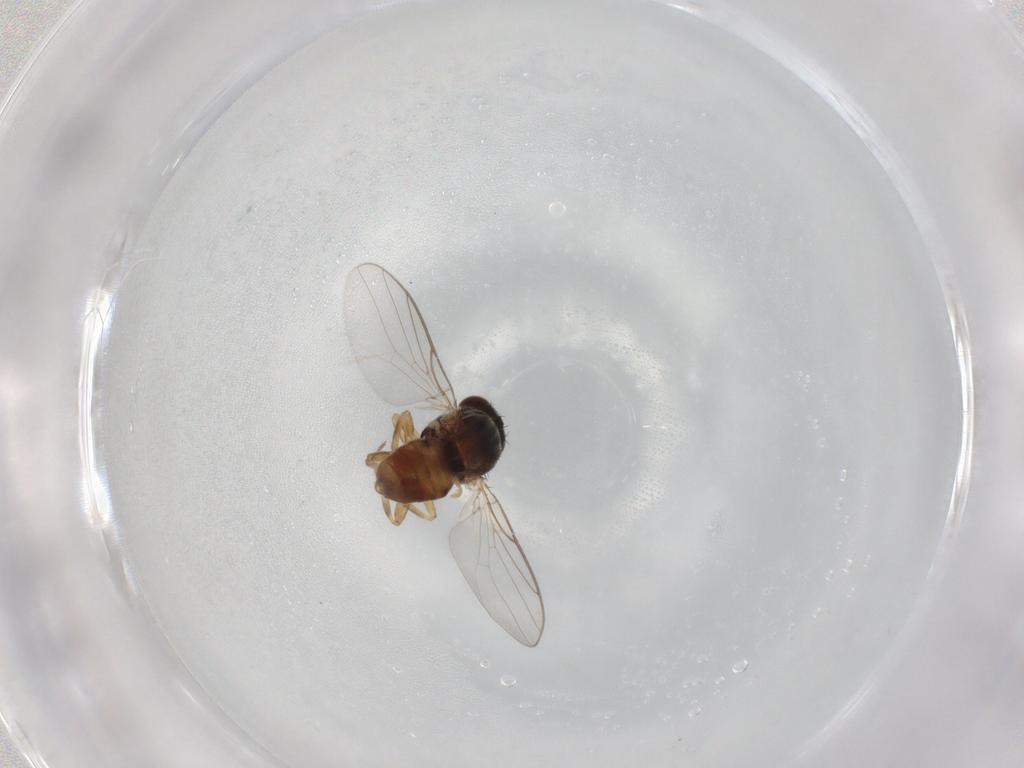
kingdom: Animalia
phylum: Arthropoda
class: Insecta
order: Diptera
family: Chloropidae
